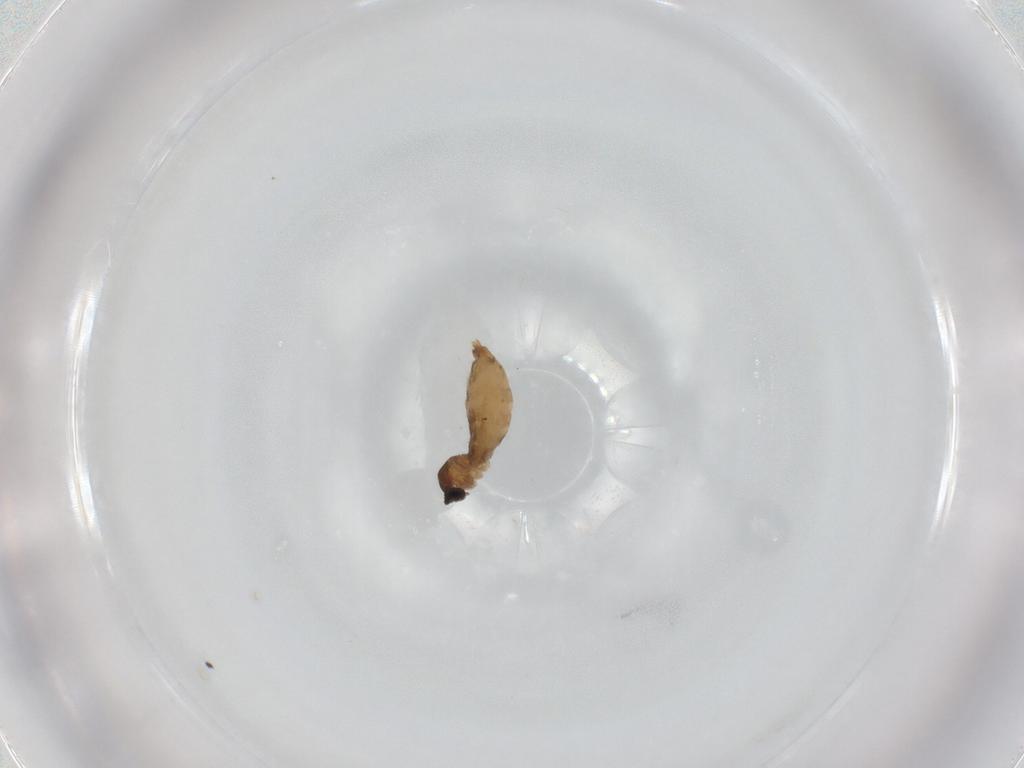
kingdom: Animalia
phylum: Arthropoda
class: Insecta
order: Diptera
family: Cecidomyiidae
